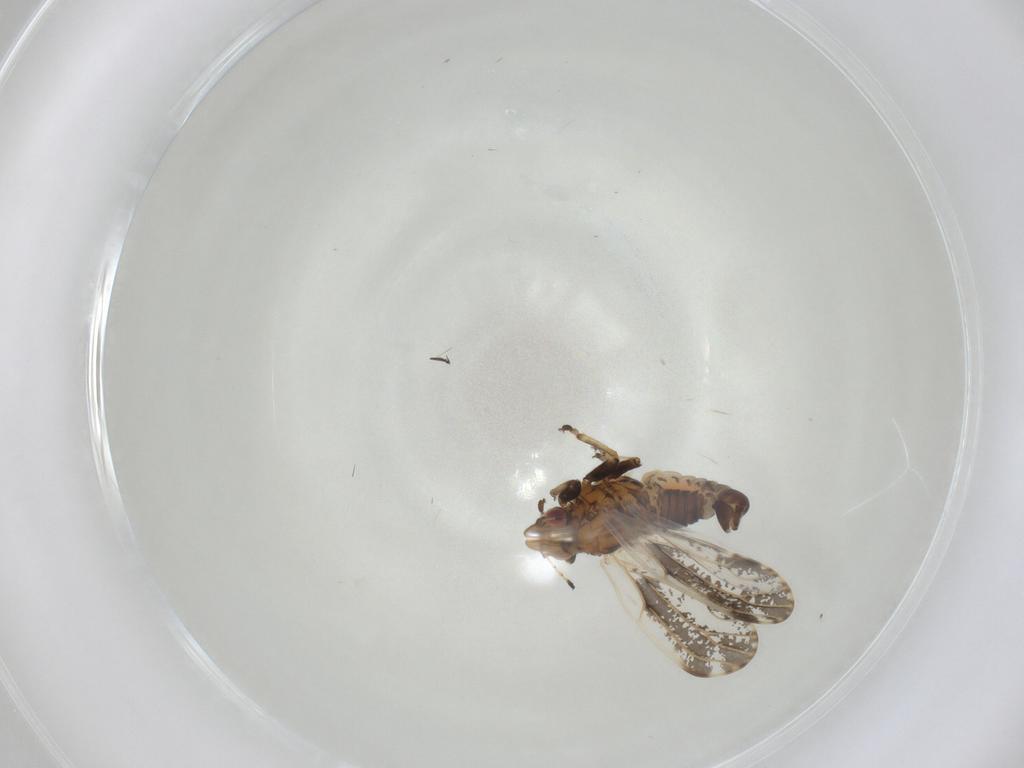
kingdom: Animalia
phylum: Arthropoda
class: Insecta
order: Hemiptera
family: Psylloidea_incertae_sedis
